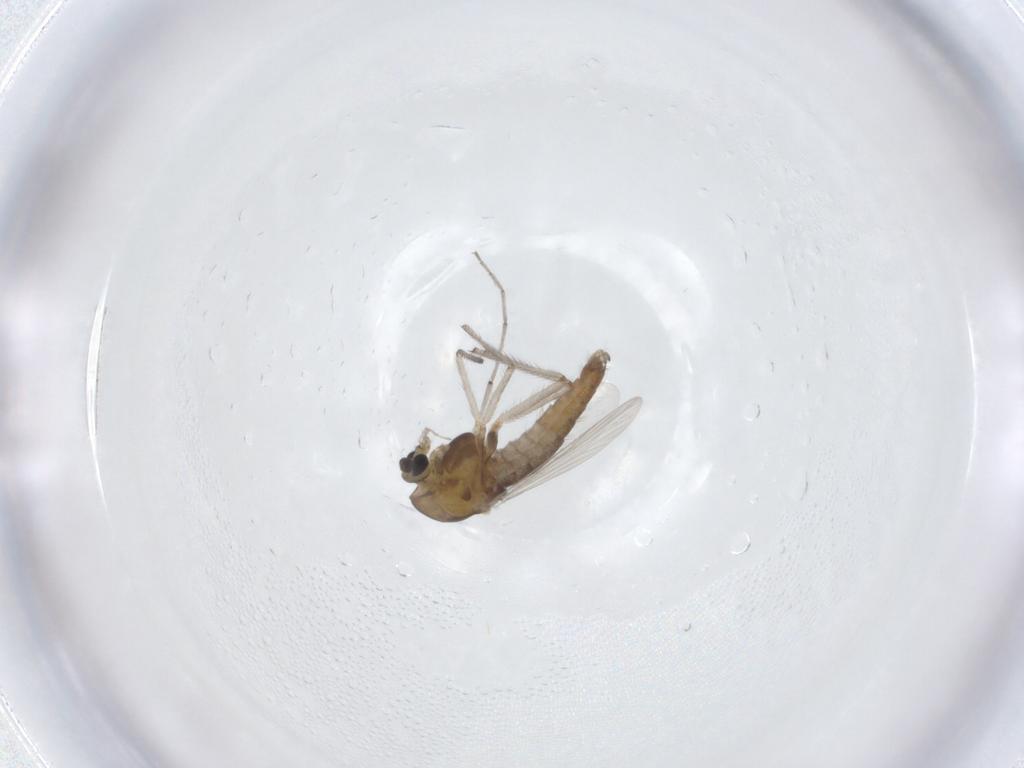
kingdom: Animalia
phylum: Arthropoda
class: Insecta
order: Diptera
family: Chironomidae
